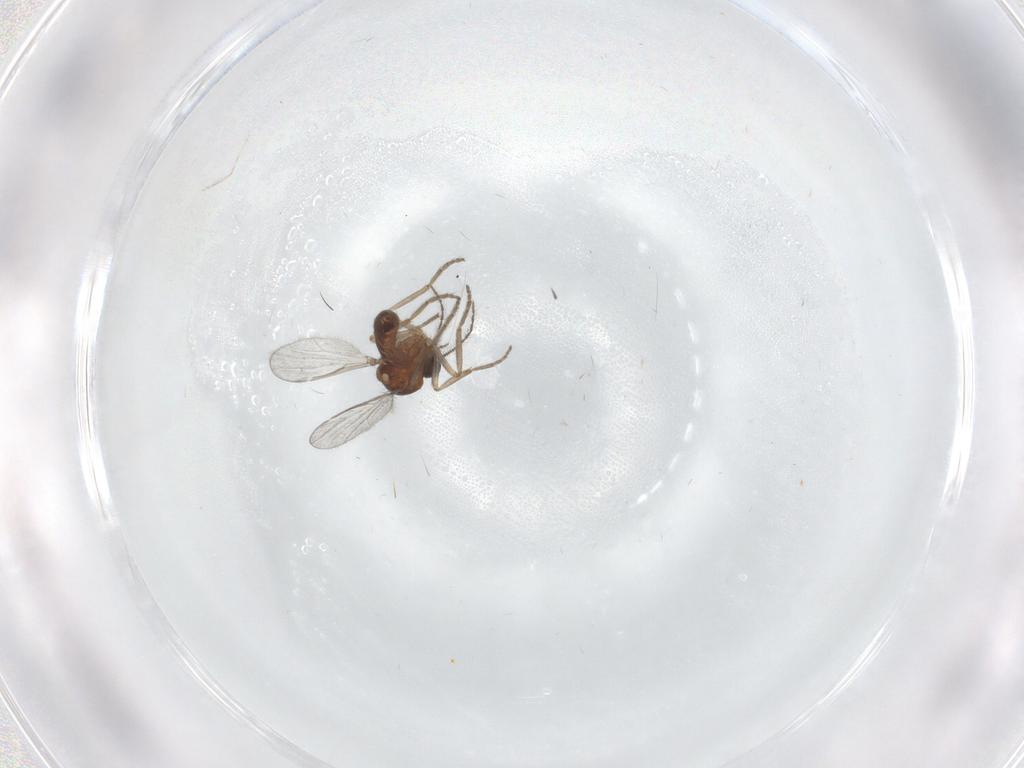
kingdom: Animalia
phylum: Arthropoda
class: Insecta
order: Diptera
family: Ceratopogonidae
